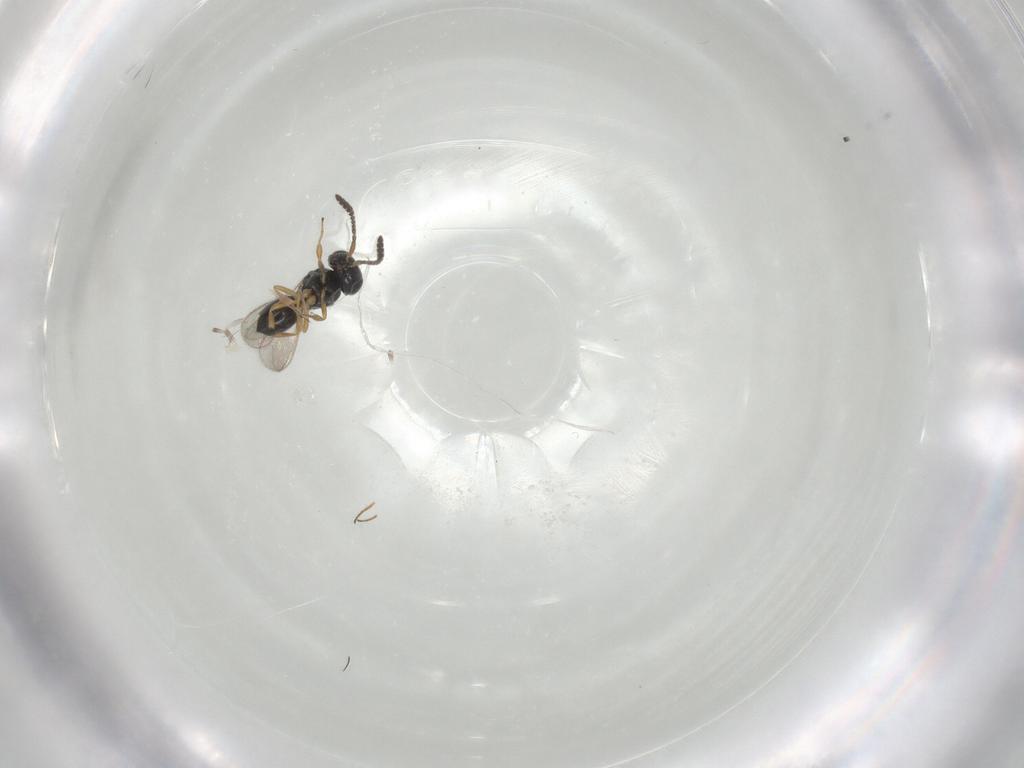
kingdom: Animalia
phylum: Arthropoda
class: Insecta
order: Hymenoptera
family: Scelionidae
